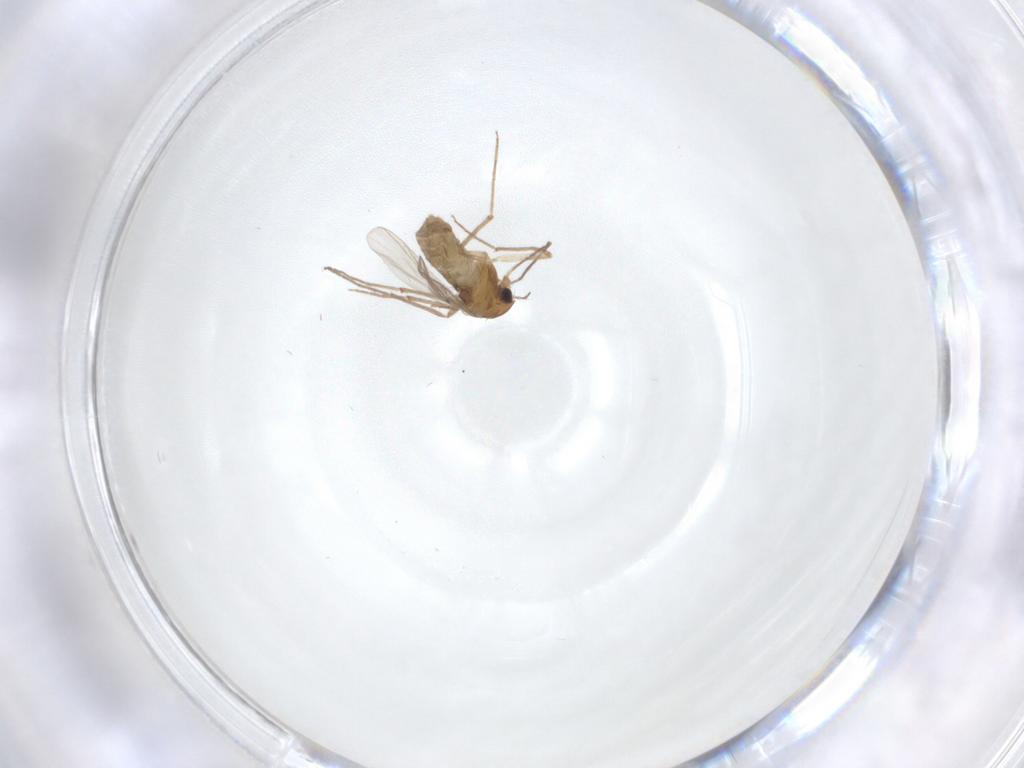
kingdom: Animalia
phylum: Arthropoda
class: Insecta
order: Diptera
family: Chironomidae
